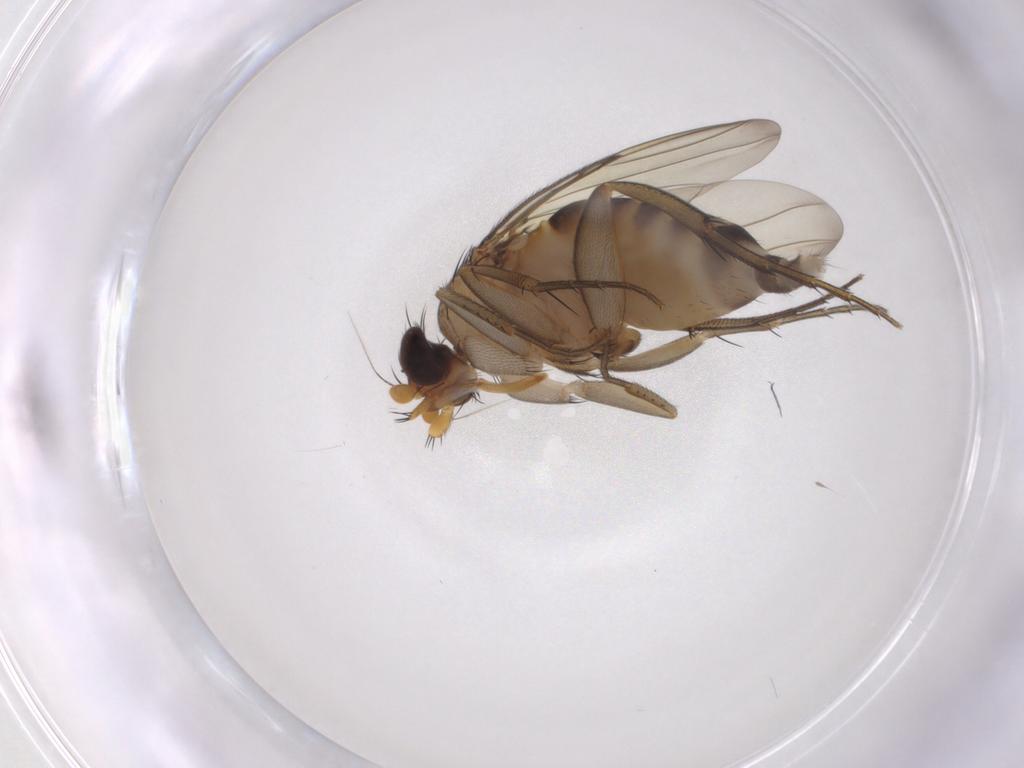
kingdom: Animalia
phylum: Arthropoda
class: Insecta
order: Diptera
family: Phoridae
